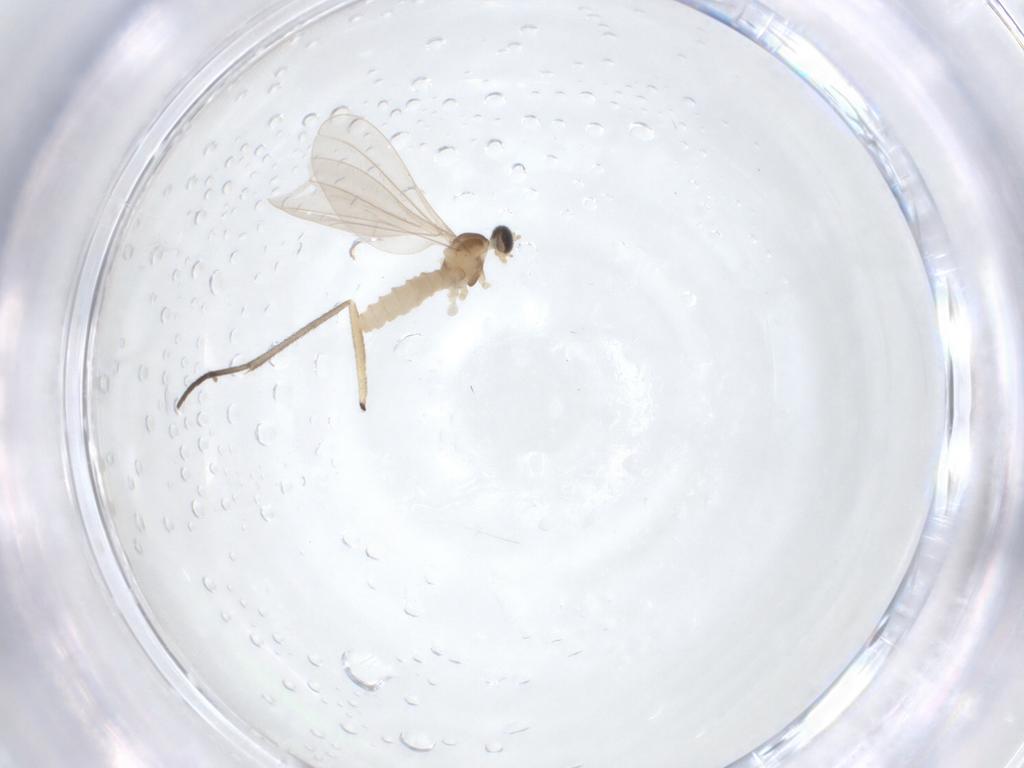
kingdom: Animalia
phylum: Arthropoda
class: Insecta
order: Diptera
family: Cecidomyiidae
